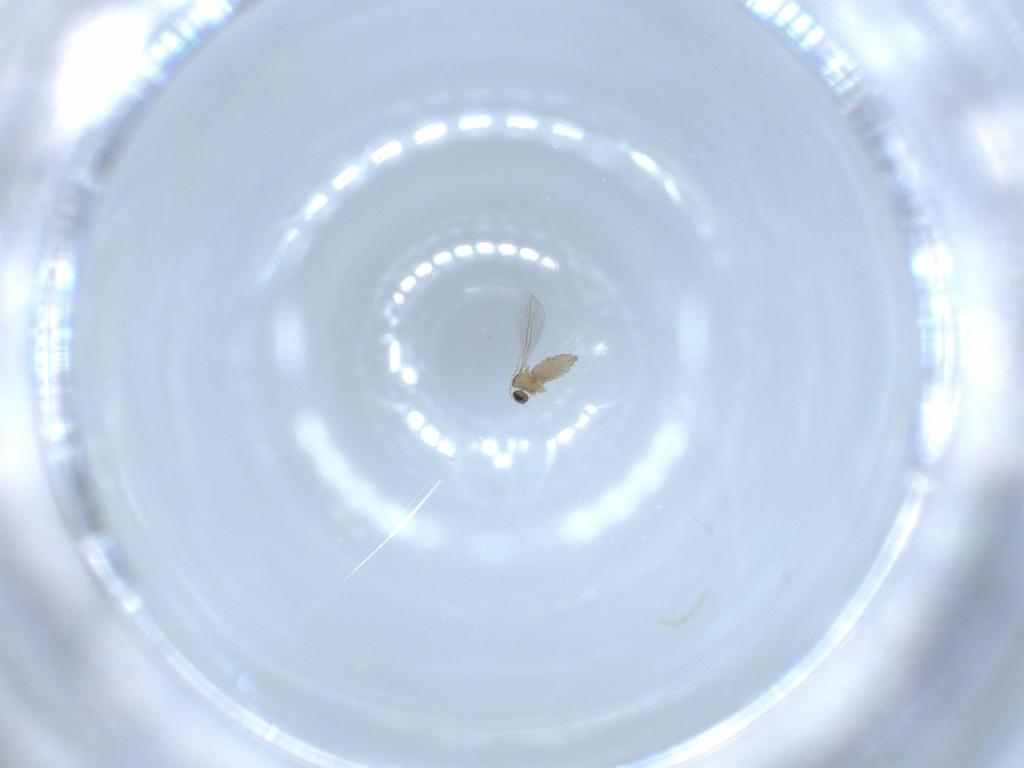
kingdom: Animalia
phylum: Arthropoda
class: Insecta
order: Diptera
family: Cecidomyiidae
